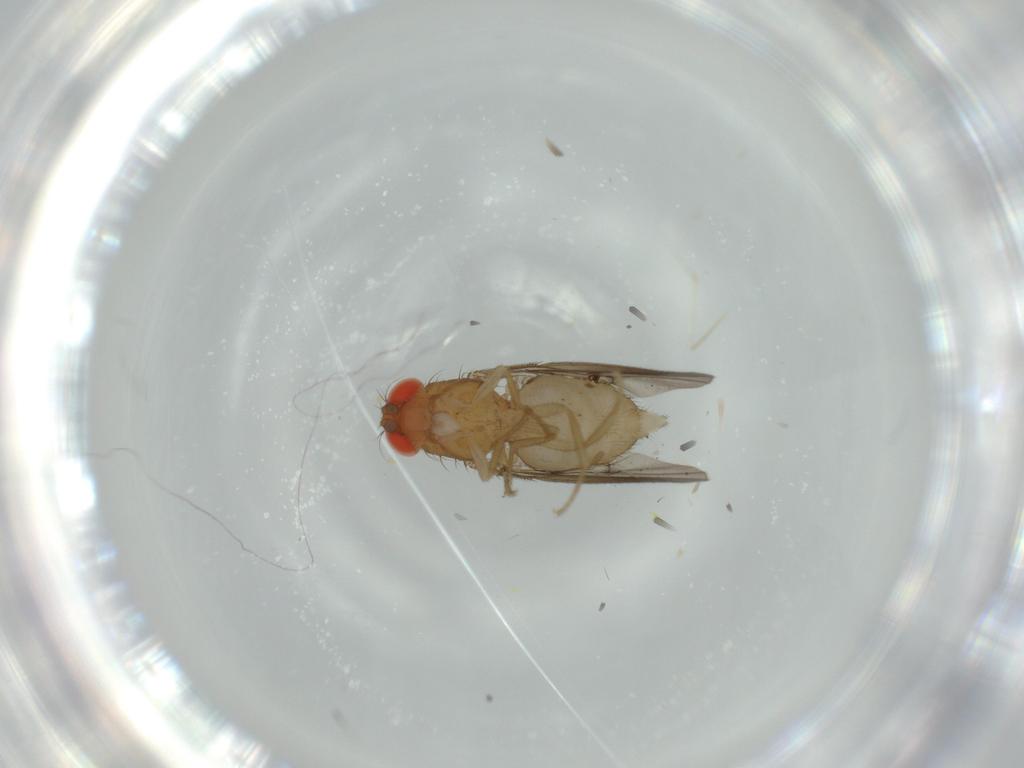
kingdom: Animalia
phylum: Arthropoda
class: Insecta
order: Diptera
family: Drosophilidae
